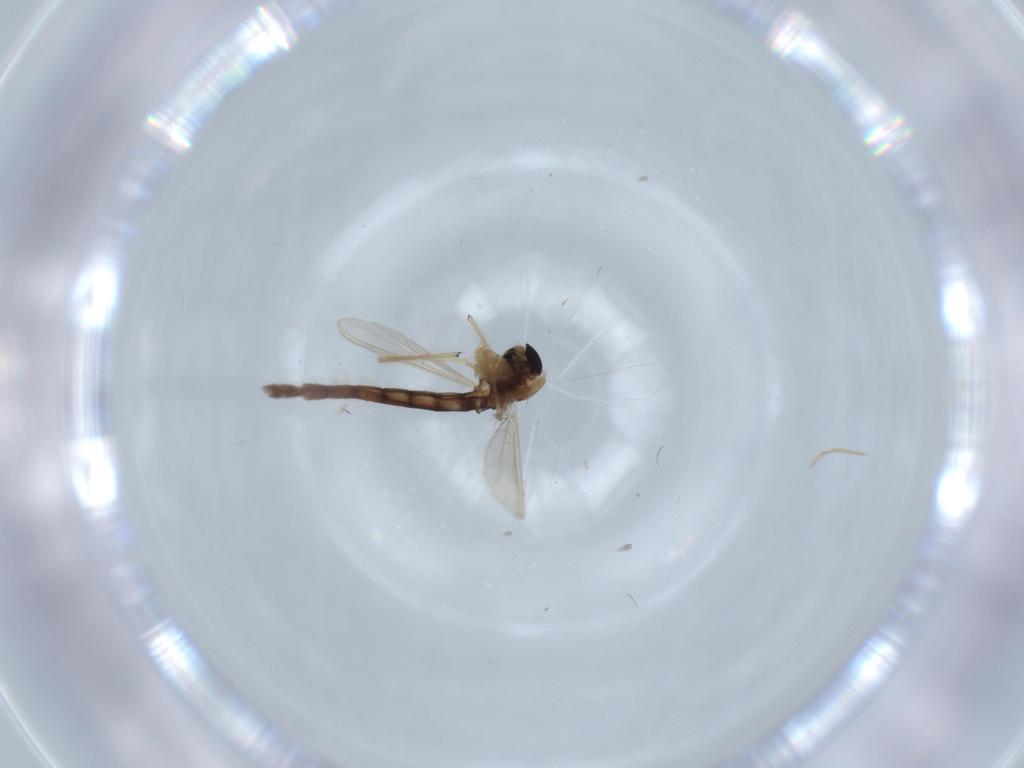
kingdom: Animalia
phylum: Arthropoda
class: Insecta
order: Diptera
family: Chironomidae
